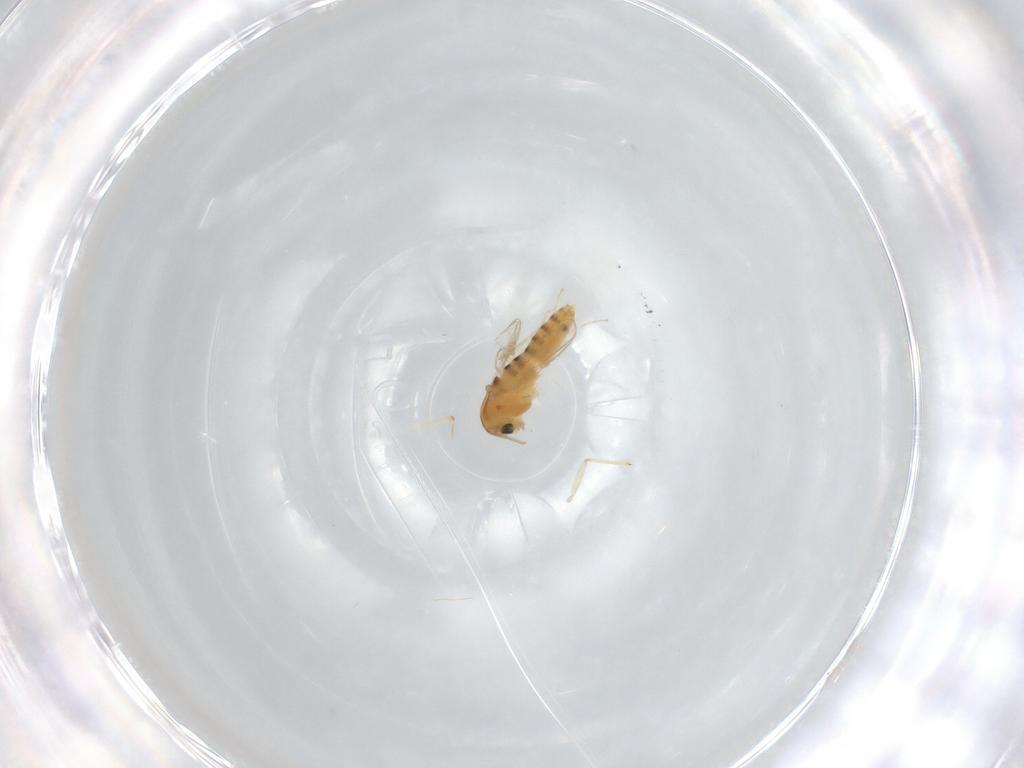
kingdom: Animalia
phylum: Arthropoda
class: Insecta
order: Diptera
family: Chironomidae
